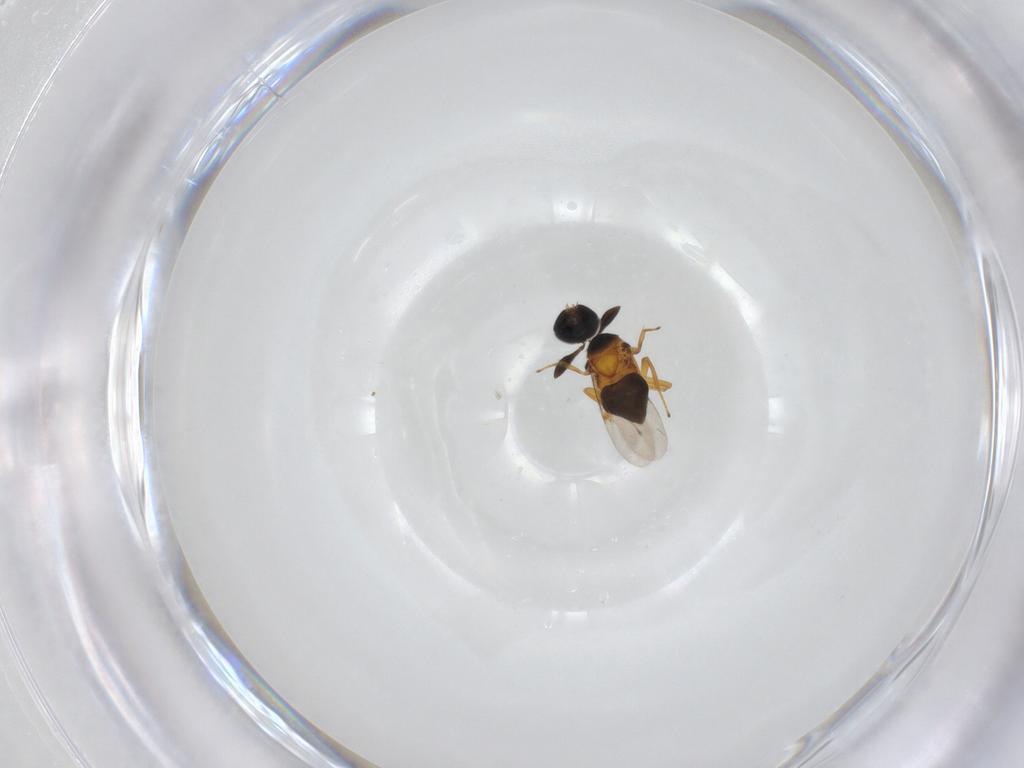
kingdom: Animalia
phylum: Arthropoda
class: Insecta
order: Hymenoptera
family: Encyrtidae
